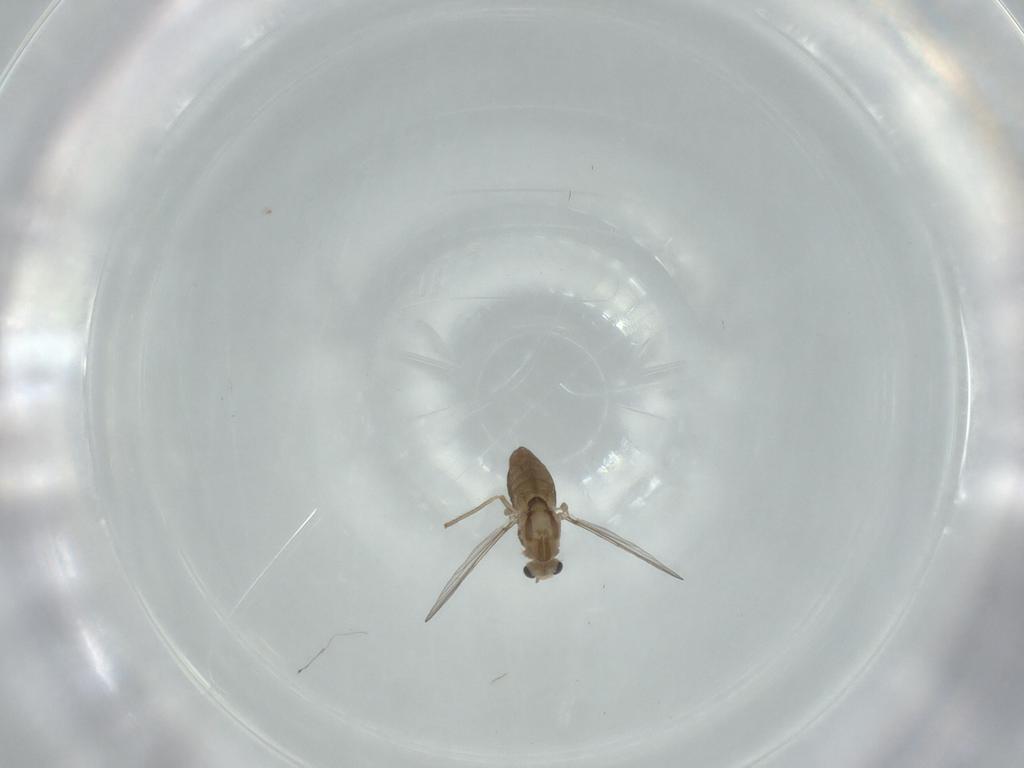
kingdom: Animalia
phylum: Arthropoda
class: Insecta
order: Diptera
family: Chironomidae
